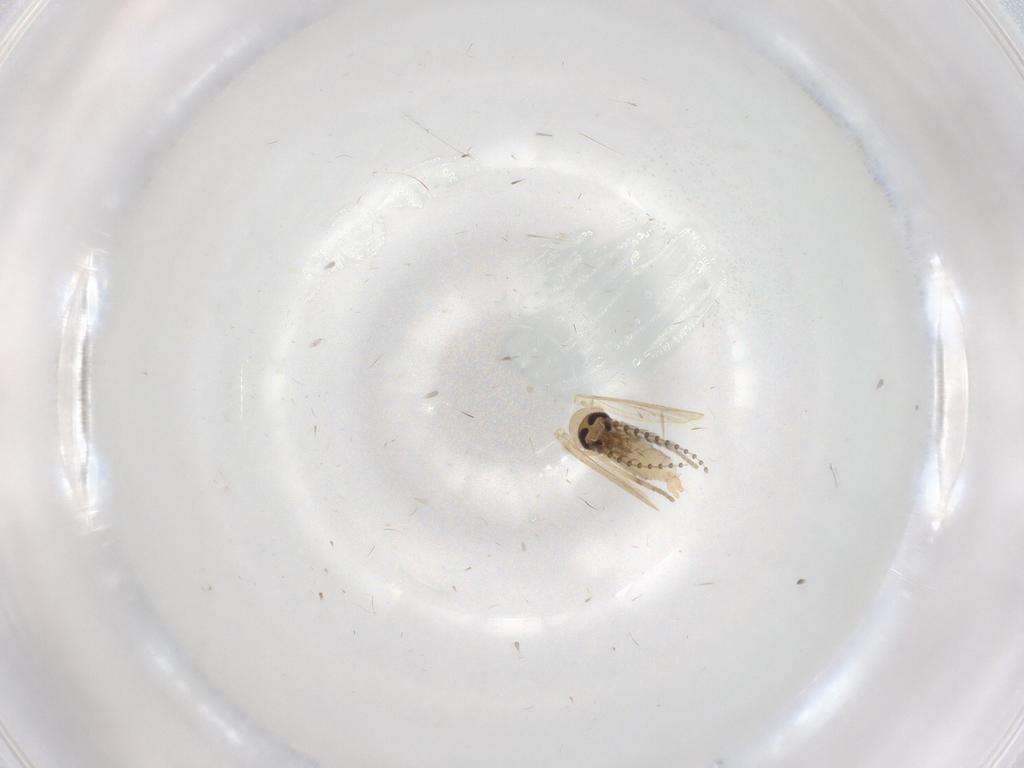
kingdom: Animalia
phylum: Arthropoda
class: Insecta
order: Diptera
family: Psychodidae
